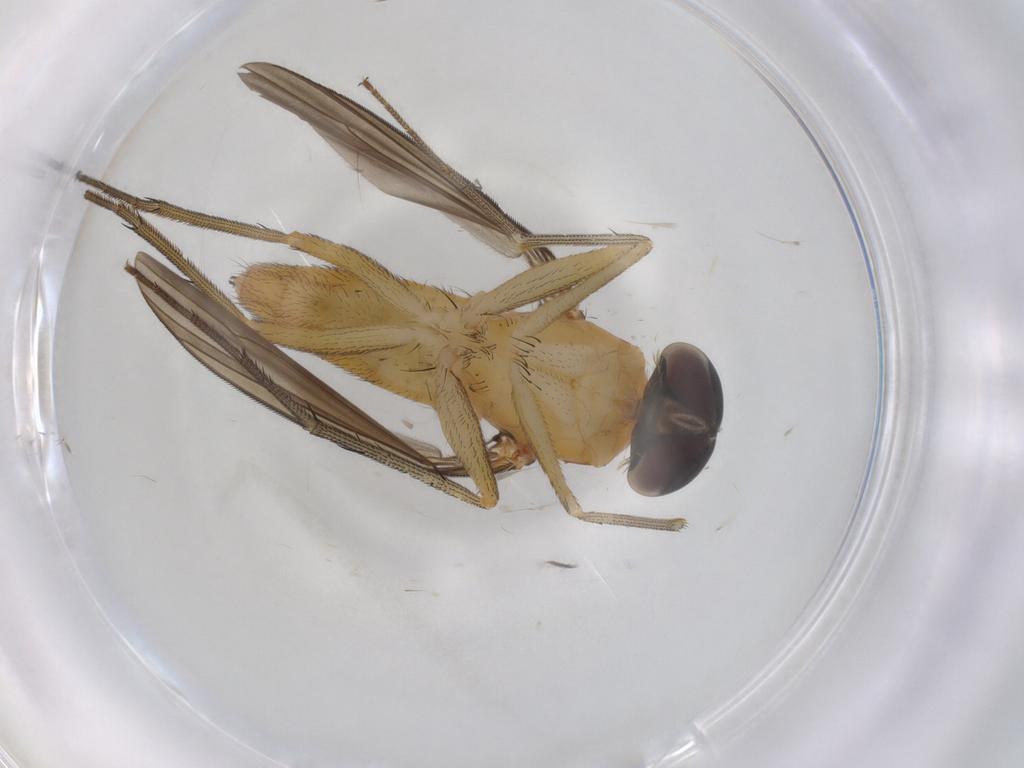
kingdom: Animalia
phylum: Arthropoda
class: Insecta
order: Diptera
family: Dolichopodidae
